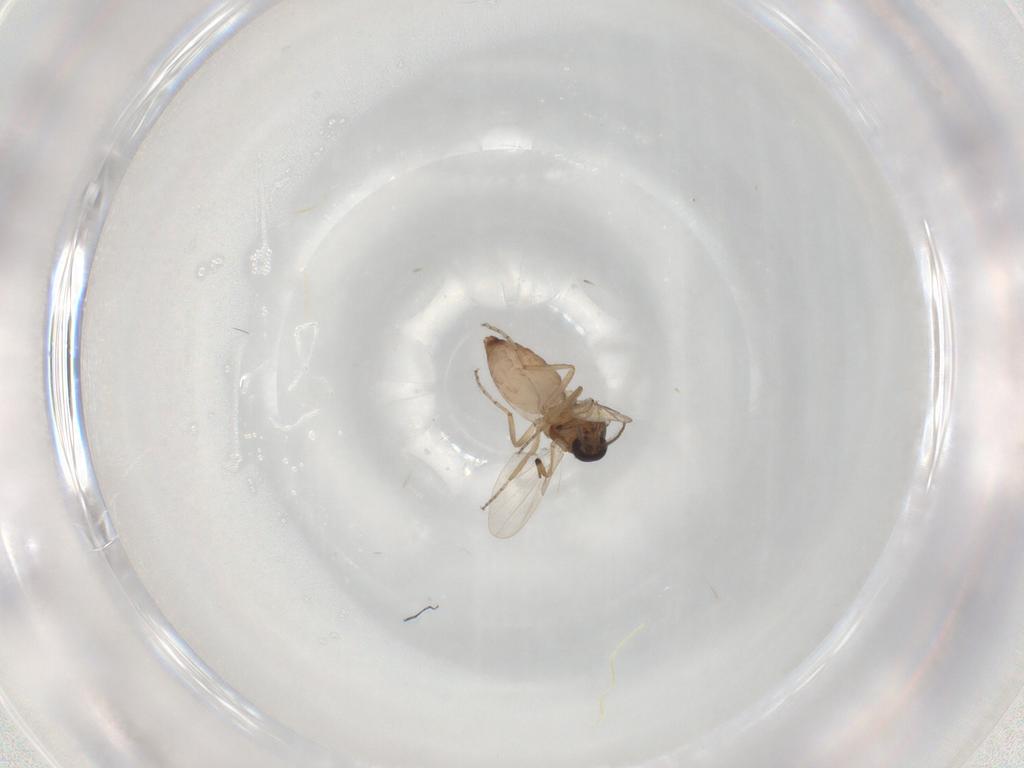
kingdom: Animalia
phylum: Arthropoda
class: Insecta
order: Diptera
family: Ceratopogonidae
